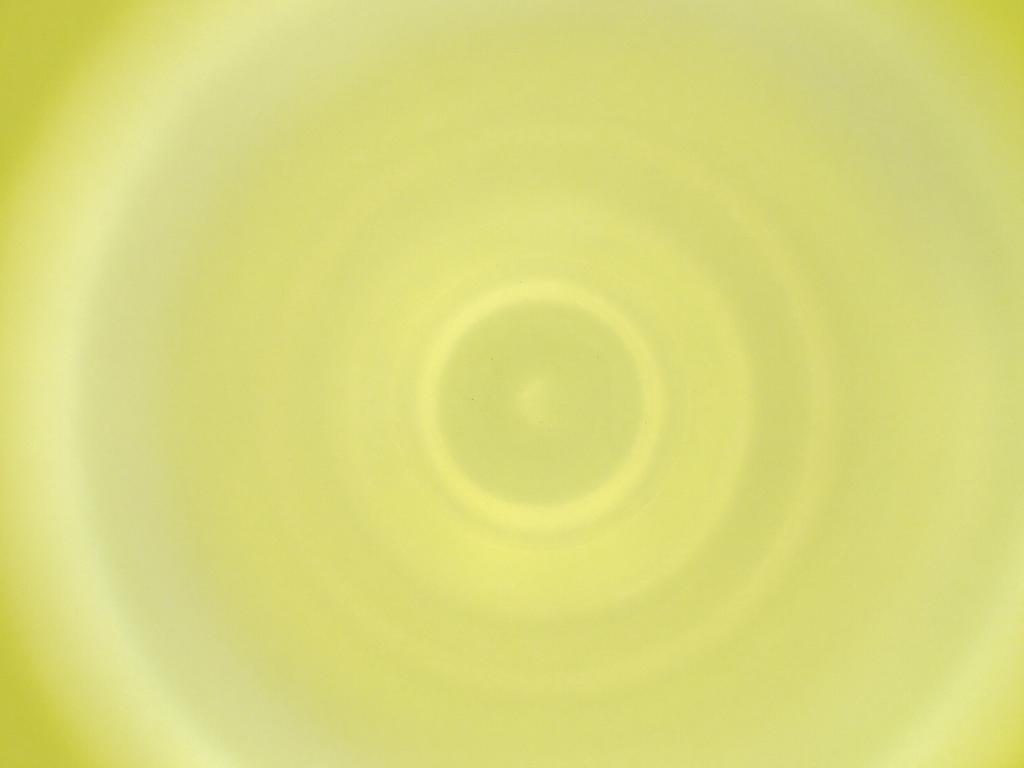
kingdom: Animalia
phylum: Arthropoda
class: Insecta
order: Diptera
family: Cecidomyiidae
